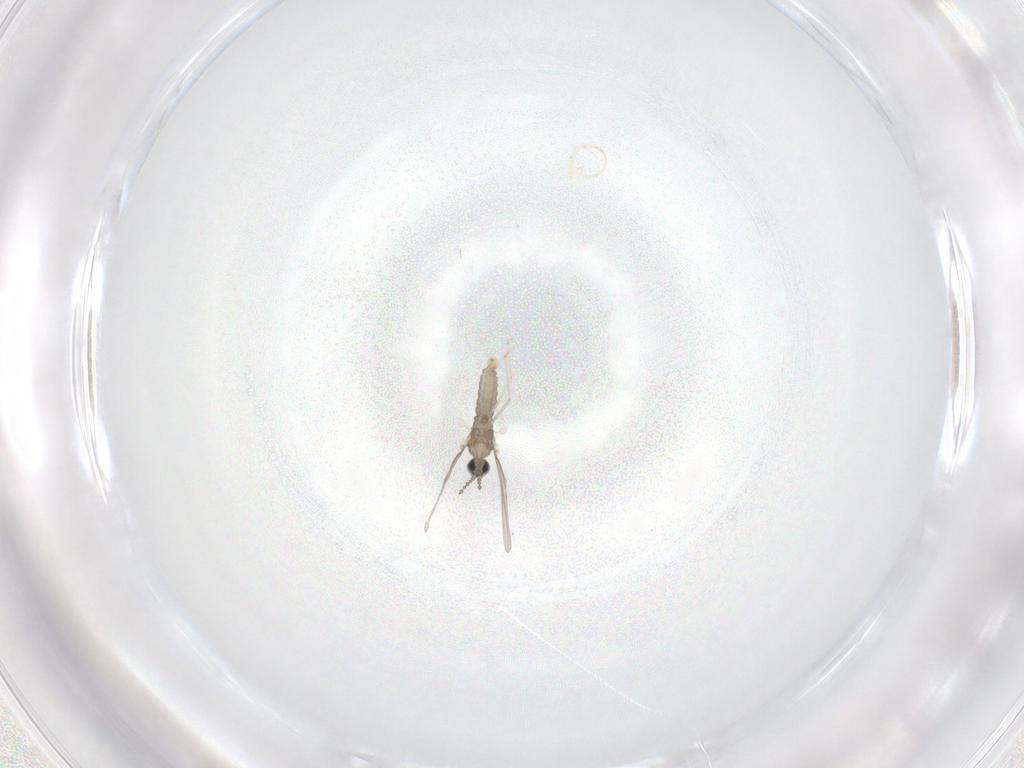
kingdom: Animalia
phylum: Arthropoda
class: Insecta
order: Diptera
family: Cecidomyiidae
